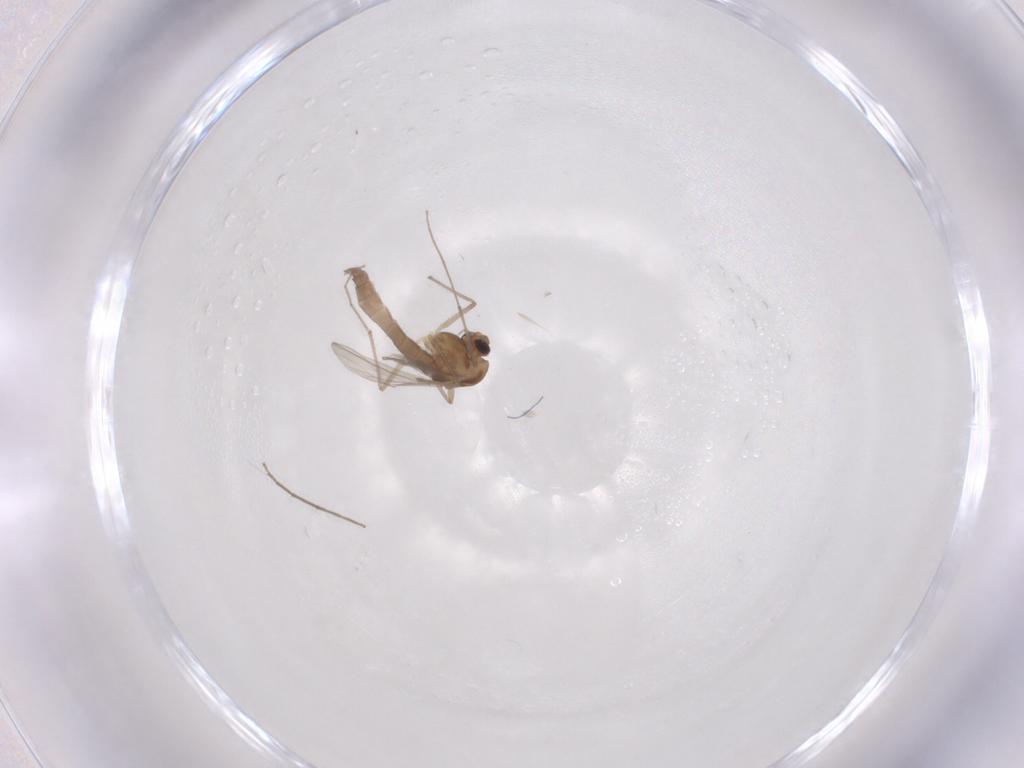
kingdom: Animalia
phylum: Arthropoda
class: Insecta
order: Diptera
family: Chironomidae
